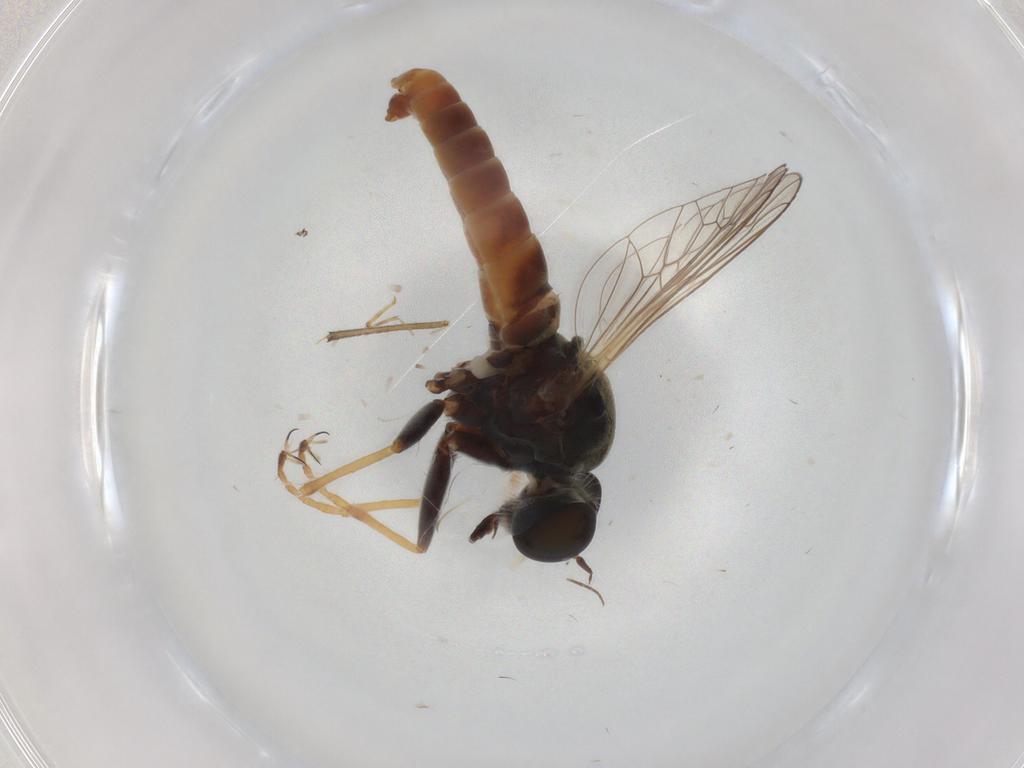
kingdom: Animalia
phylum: Arthropoda
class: Insecta
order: Diptera
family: Sciaridae
